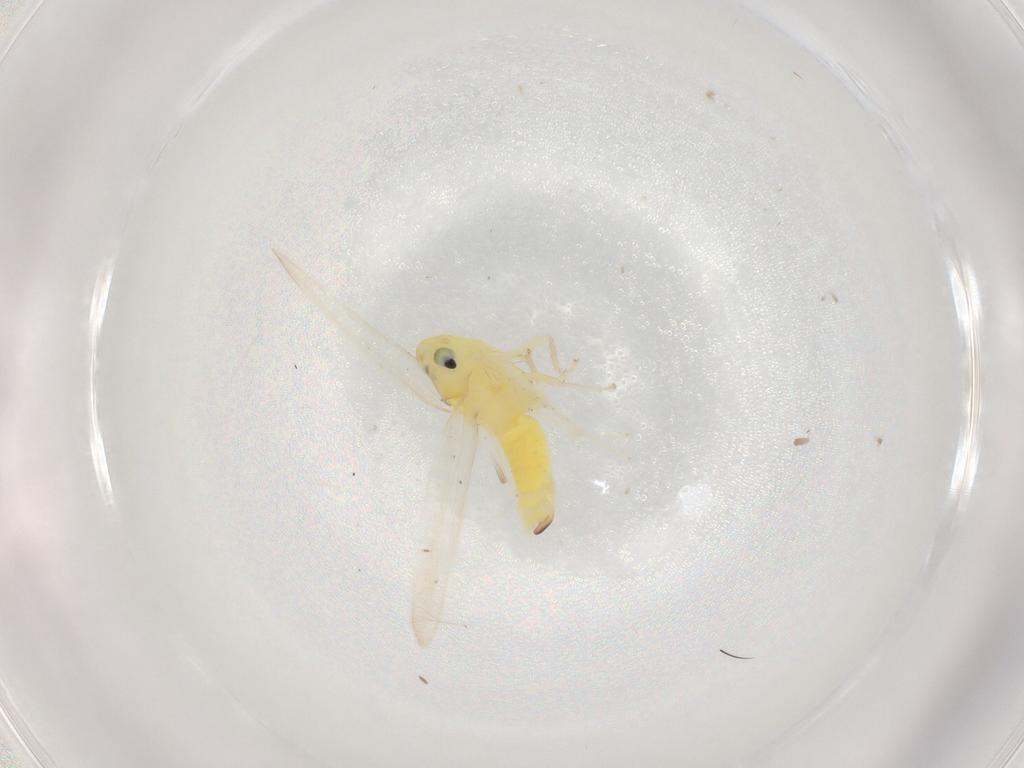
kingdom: Animalia
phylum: Arthropoda
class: Insecta
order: Hemiptera
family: Cicadellidae
